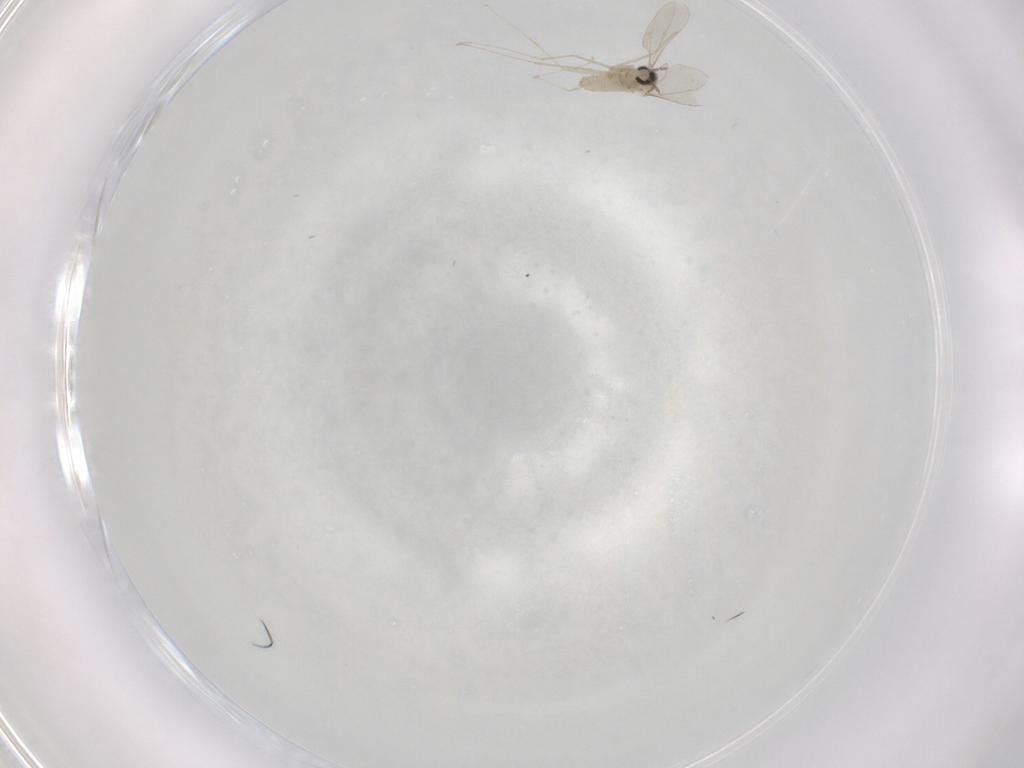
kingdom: Animalia
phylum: Arthropoda
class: Insecta
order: Diptera
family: Cecidomyiidae
